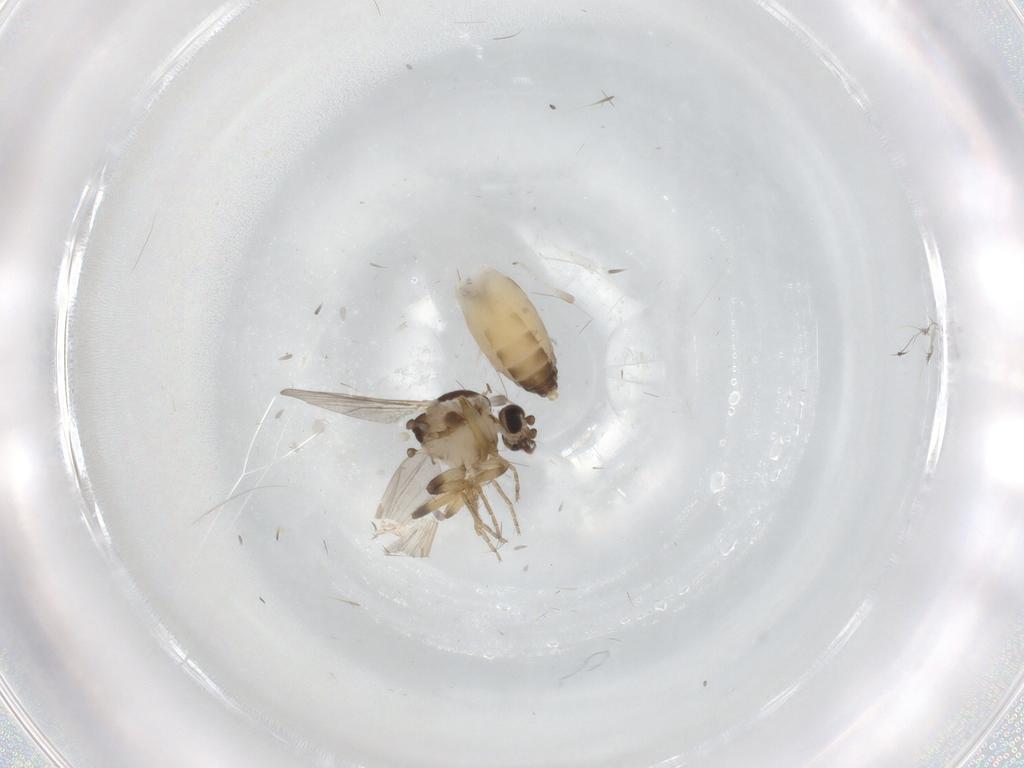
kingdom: Animalia
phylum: Arthropoda
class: Insecta
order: Diptera
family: Ceratopogonidae
